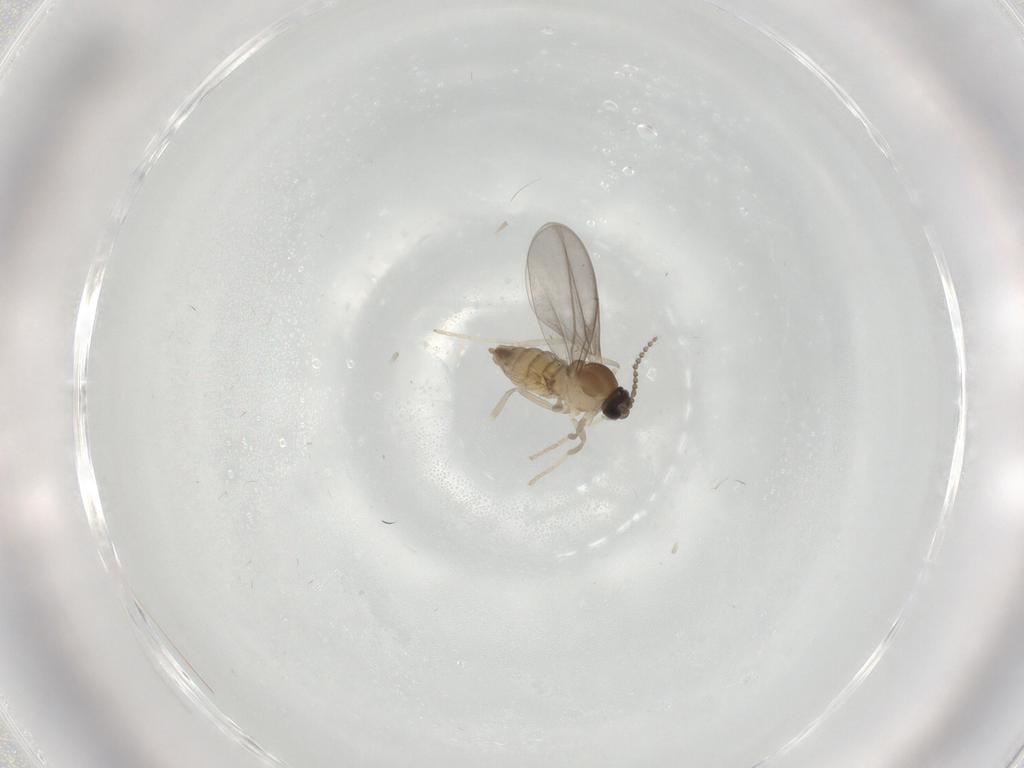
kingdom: Animalia
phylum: Arthropoda
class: Insecta
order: Diptera
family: Cecidomyiidae
